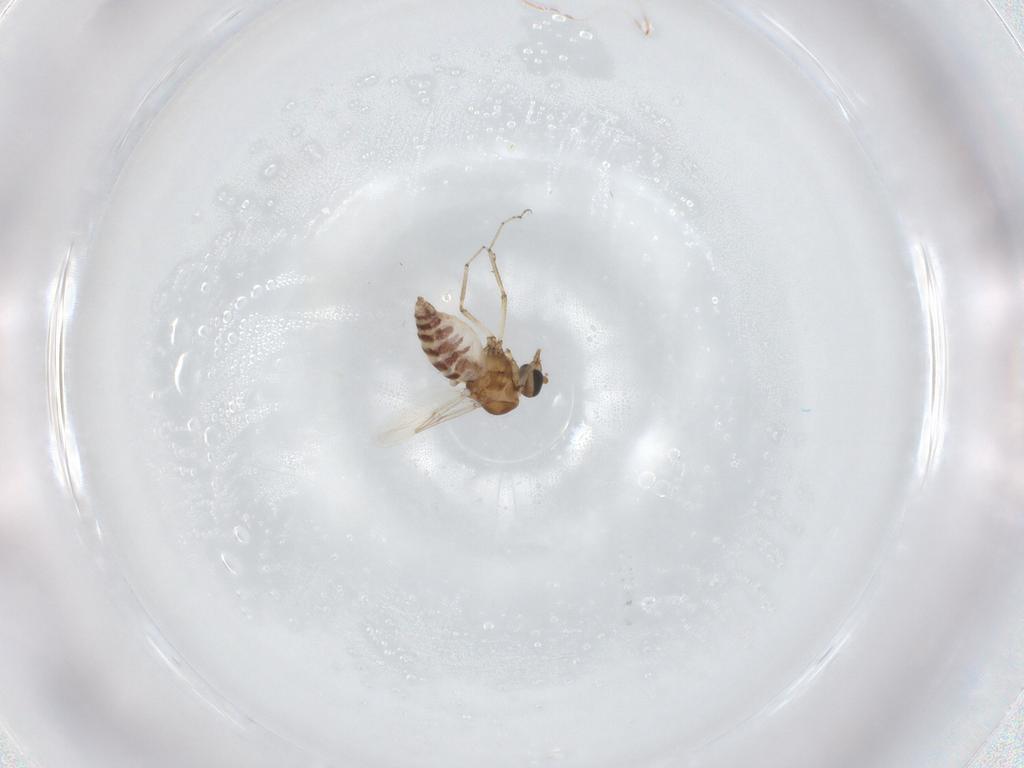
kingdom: Animalia
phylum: Arthropoda
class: Insecta
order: Diptera
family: Ceratopogonidae
